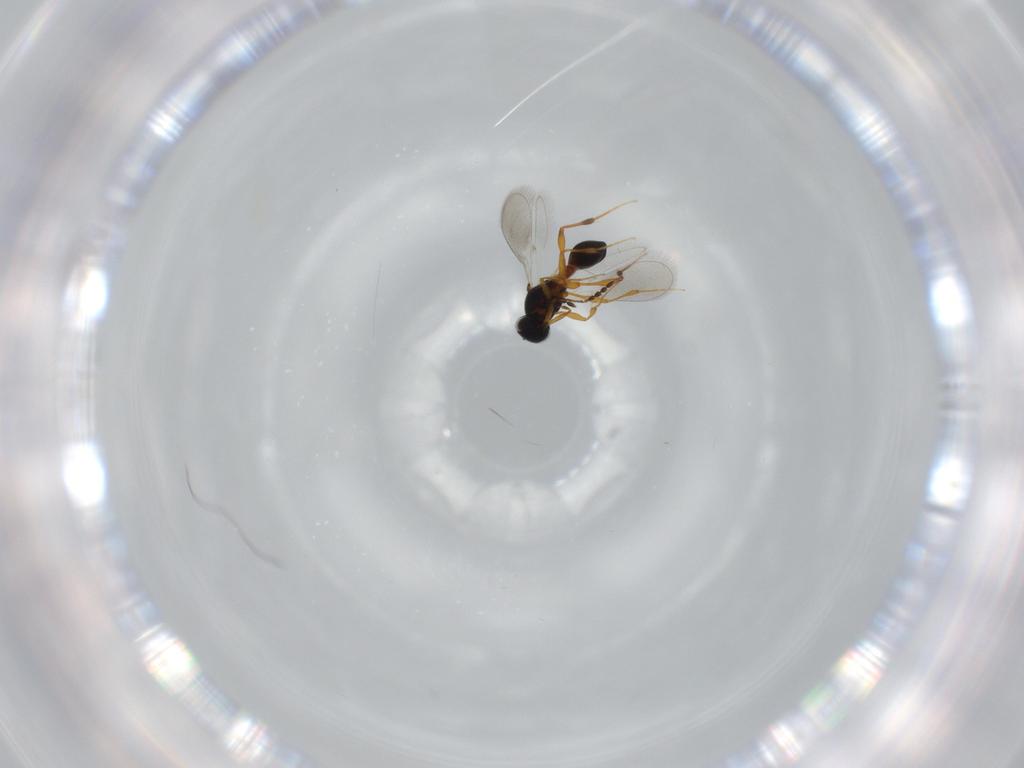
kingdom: Animalia
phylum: Arthropoda
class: Insecta
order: Hymenoptera
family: Platygastridae
